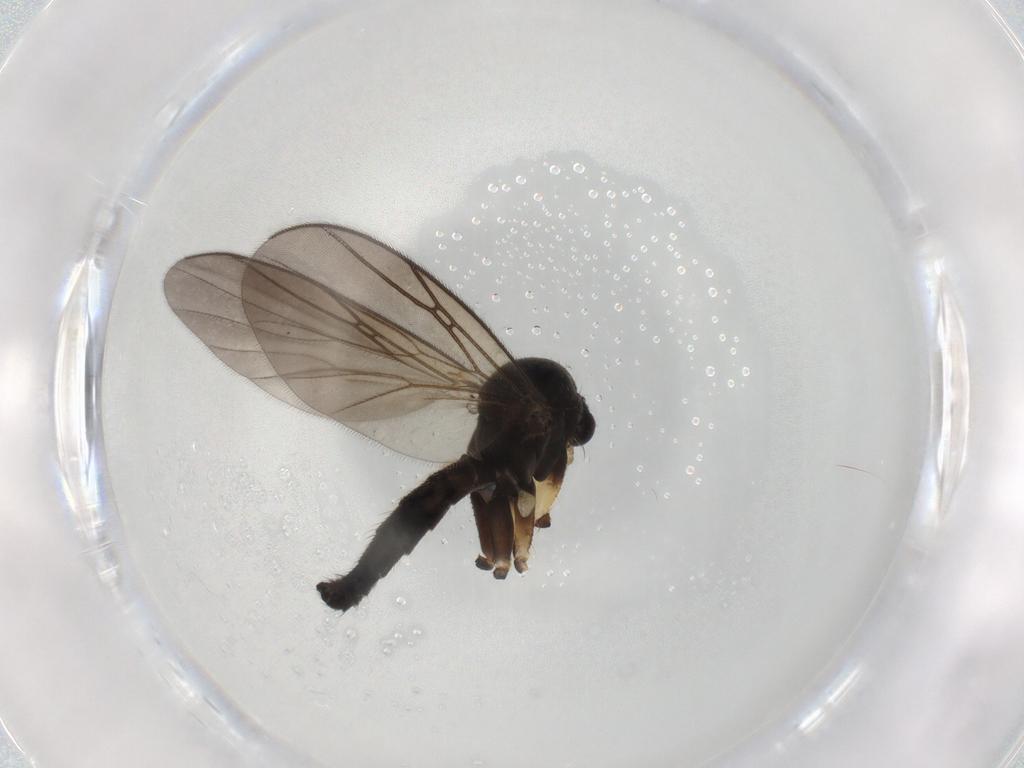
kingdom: Animalia
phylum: Arthropoda
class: Insecta
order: Diptera
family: Mycetophilidae
